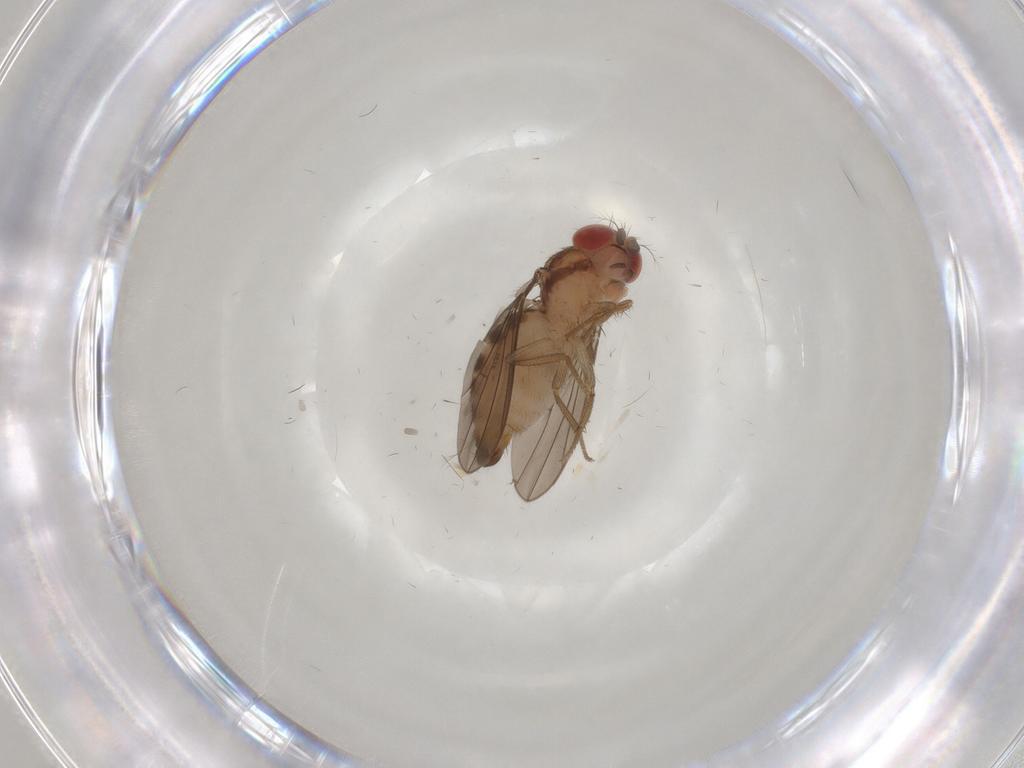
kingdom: Animalia
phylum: Arthropoda
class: Insecta
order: Diptera
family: Drosophilidae
